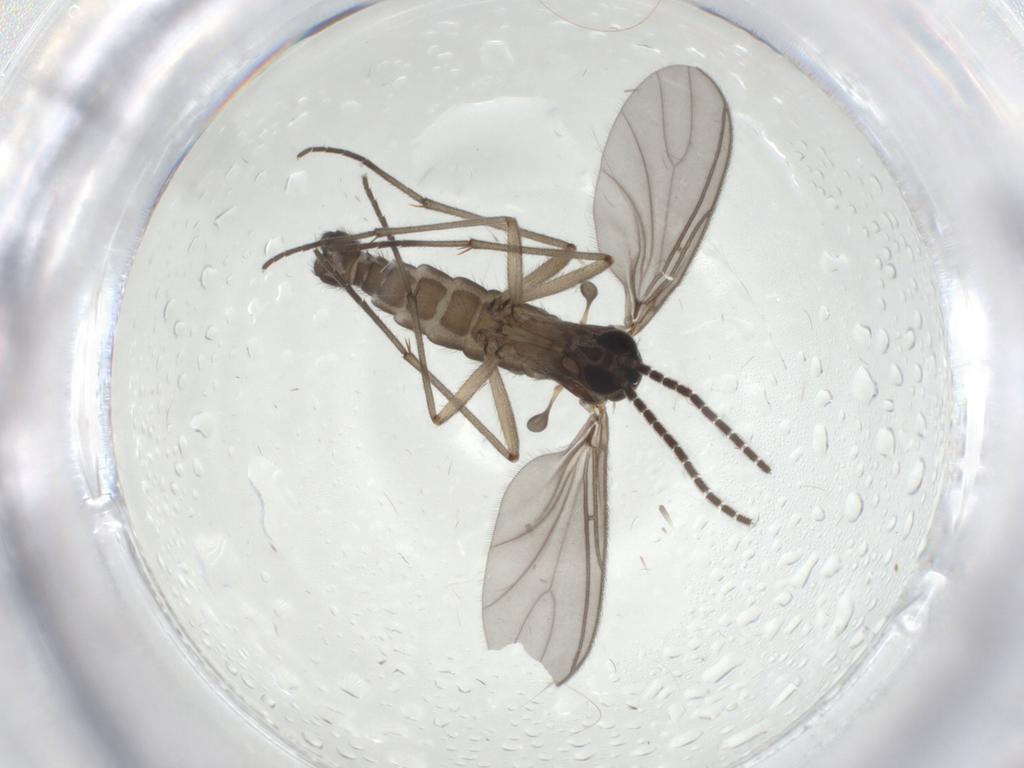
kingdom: Animalia
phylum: Arthropoda
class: Insecta
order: Diptera
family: Sciaridae
